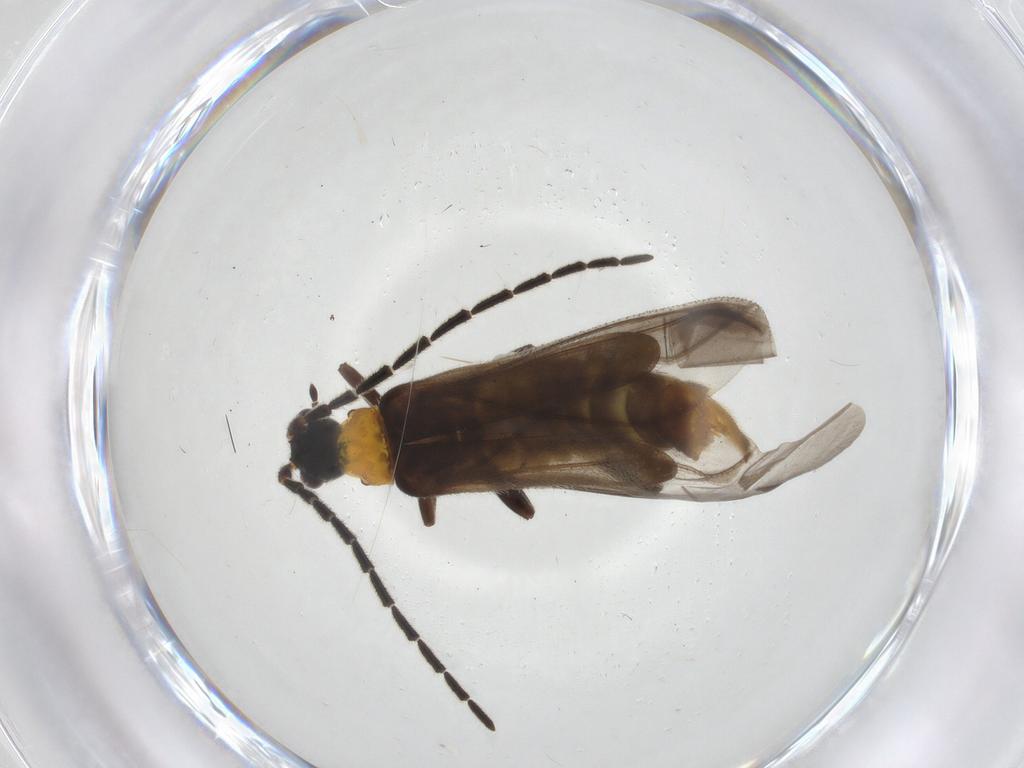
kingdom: Animalia
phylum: Arthropoda
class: Insecta
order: Coleoptera
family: Cantharidae
